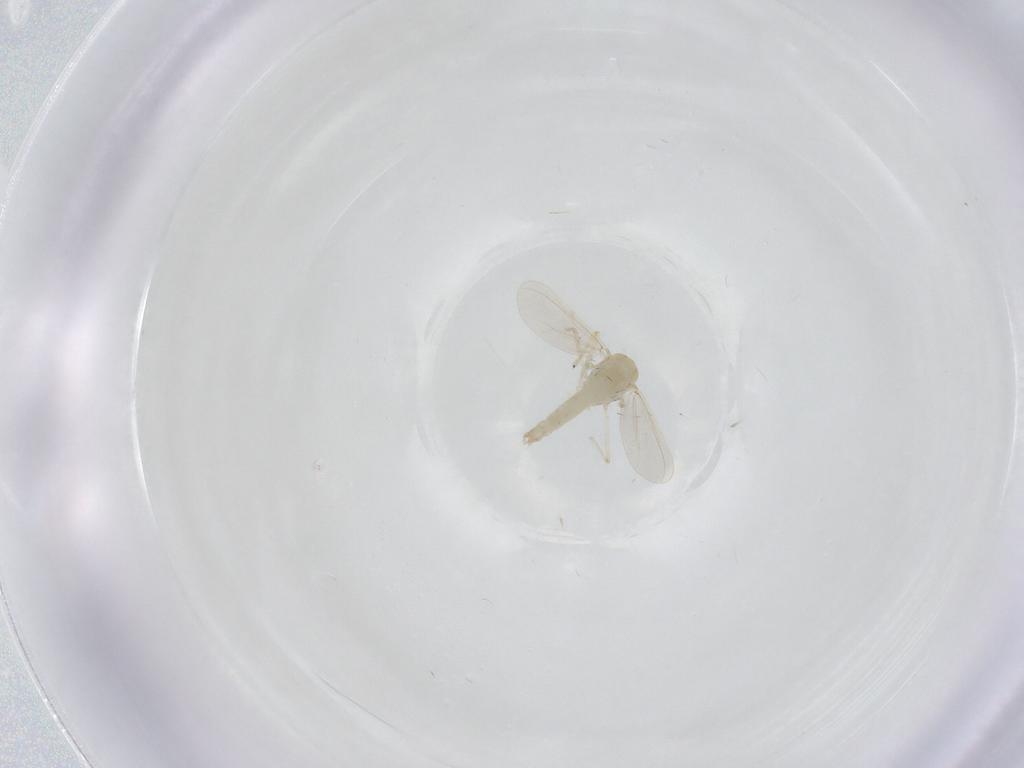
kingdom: Animalia
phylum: Arthropoda
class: Insecta
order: Diptera
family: Chironomidae
